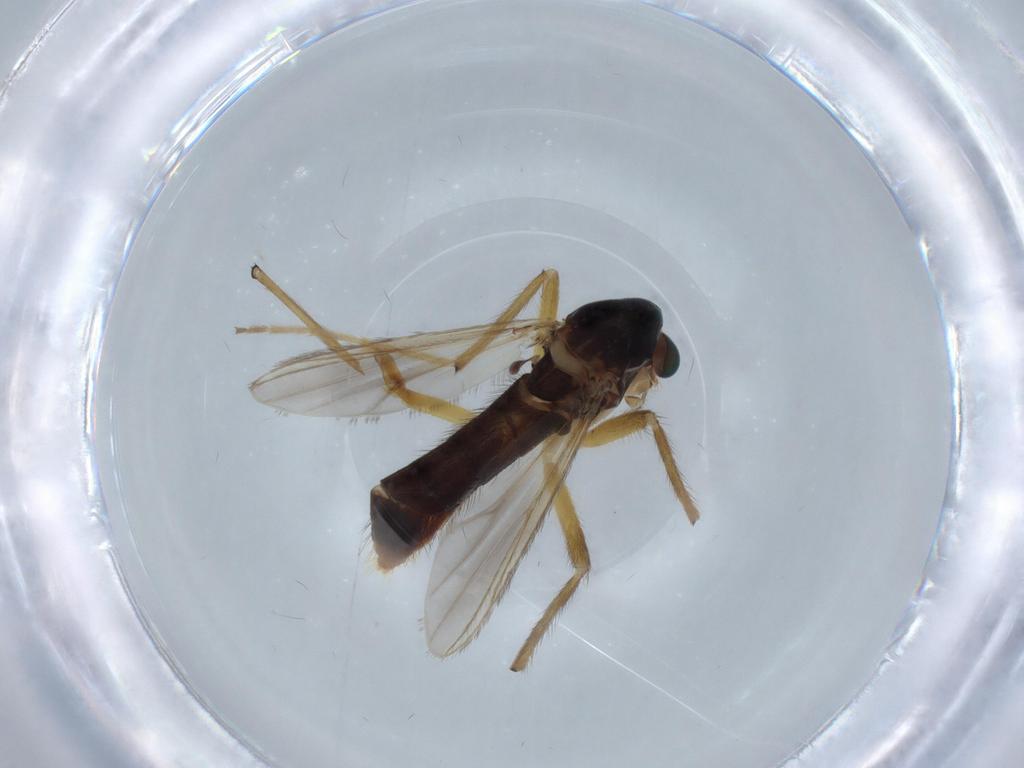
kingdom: Animalia
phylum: Arthropoda
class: Insecta
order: Diptera
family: Chironomidae
